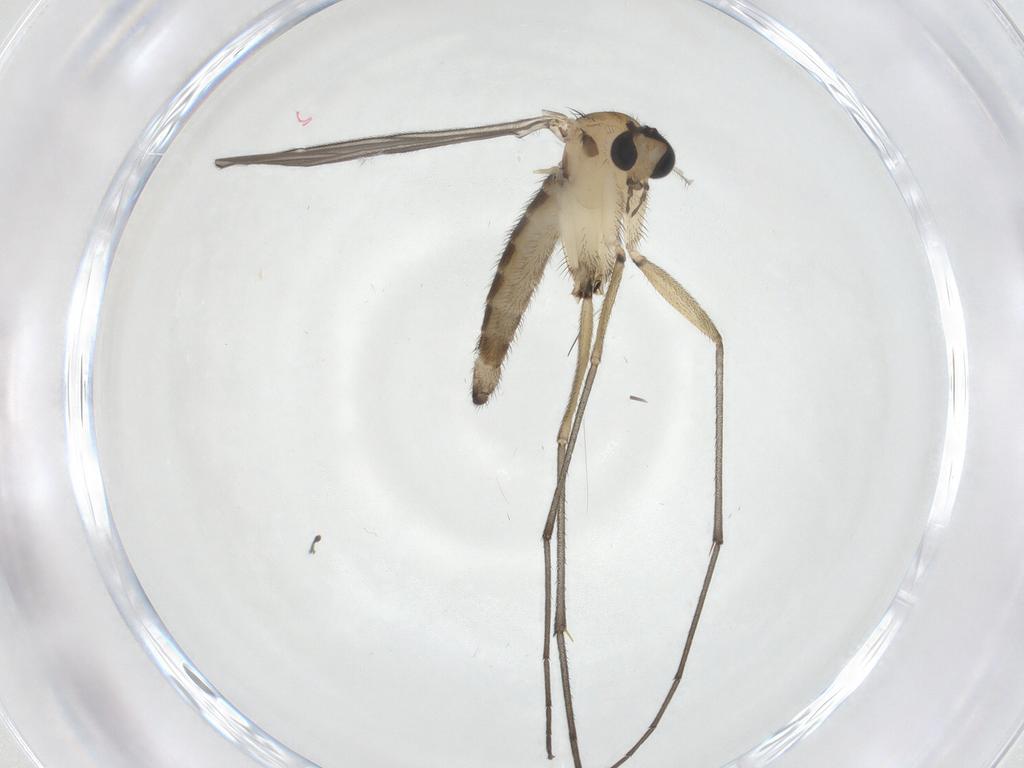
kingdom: Animalia
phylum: Arthropoda
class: Insecta
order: Diptera
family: Sciaridae
